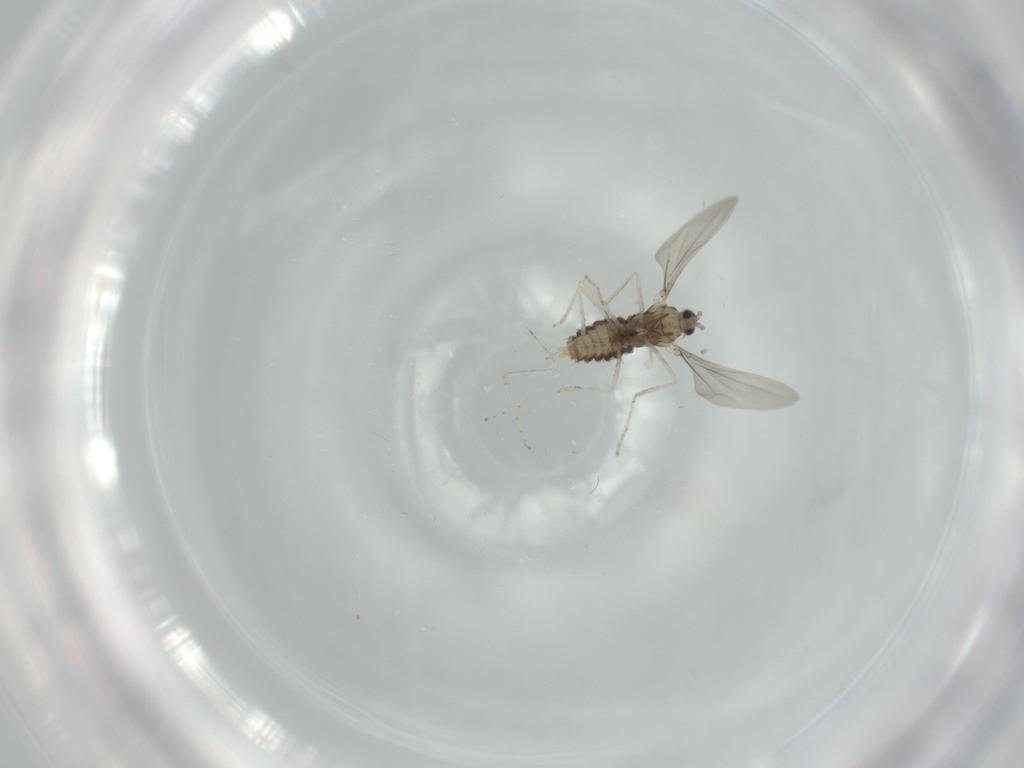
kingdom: Animalia
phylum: Arthropoda
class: Insecta
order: Diptera
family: Cecidomyiidae
